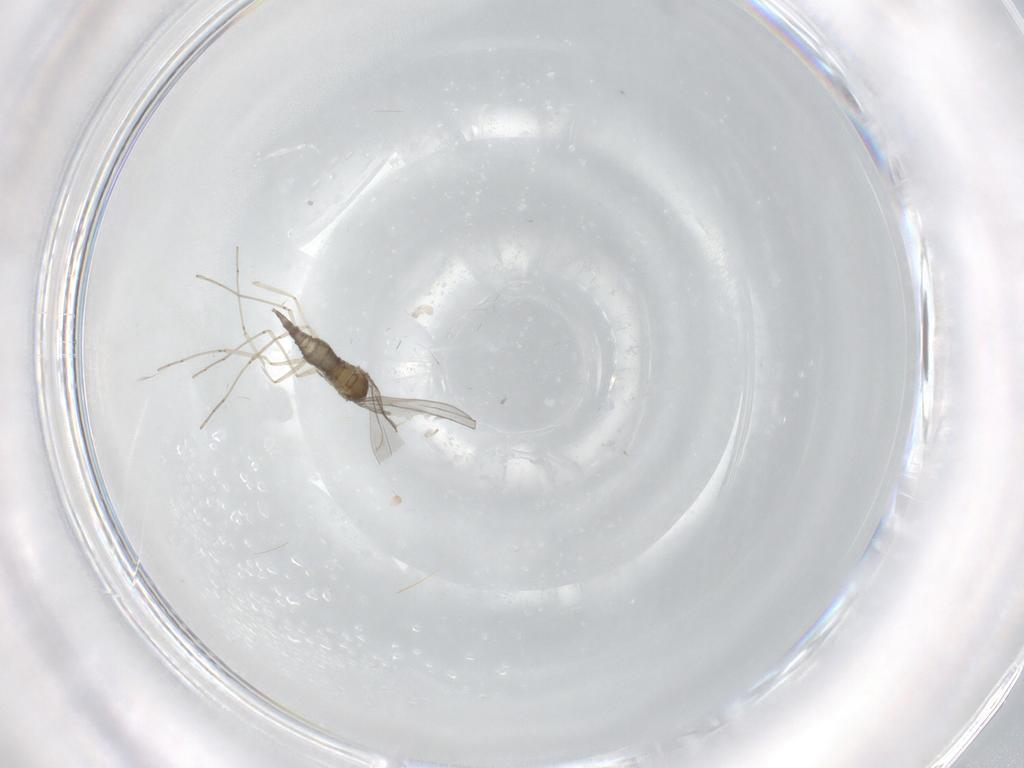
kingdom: Animalia
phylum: Arthropoda
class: Insecta
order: Diptera
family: Cecidomyiidae
